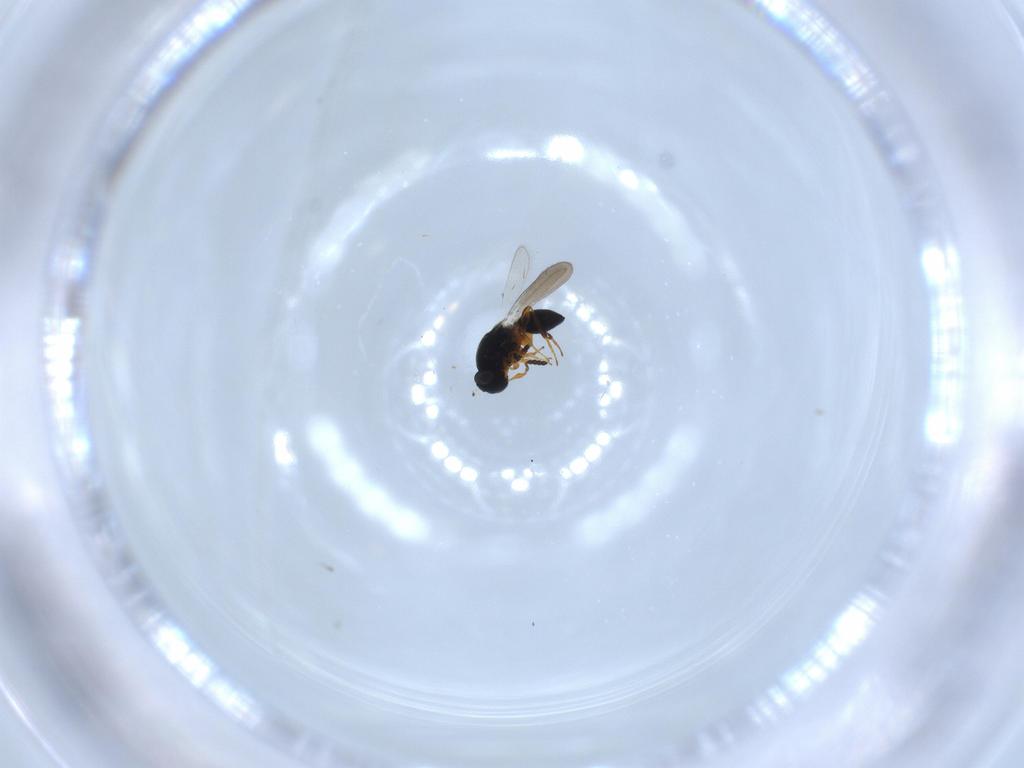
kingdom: Animalia
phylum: Arthropoda
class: Insecta
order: Hymenoptera
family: Platygastridae
